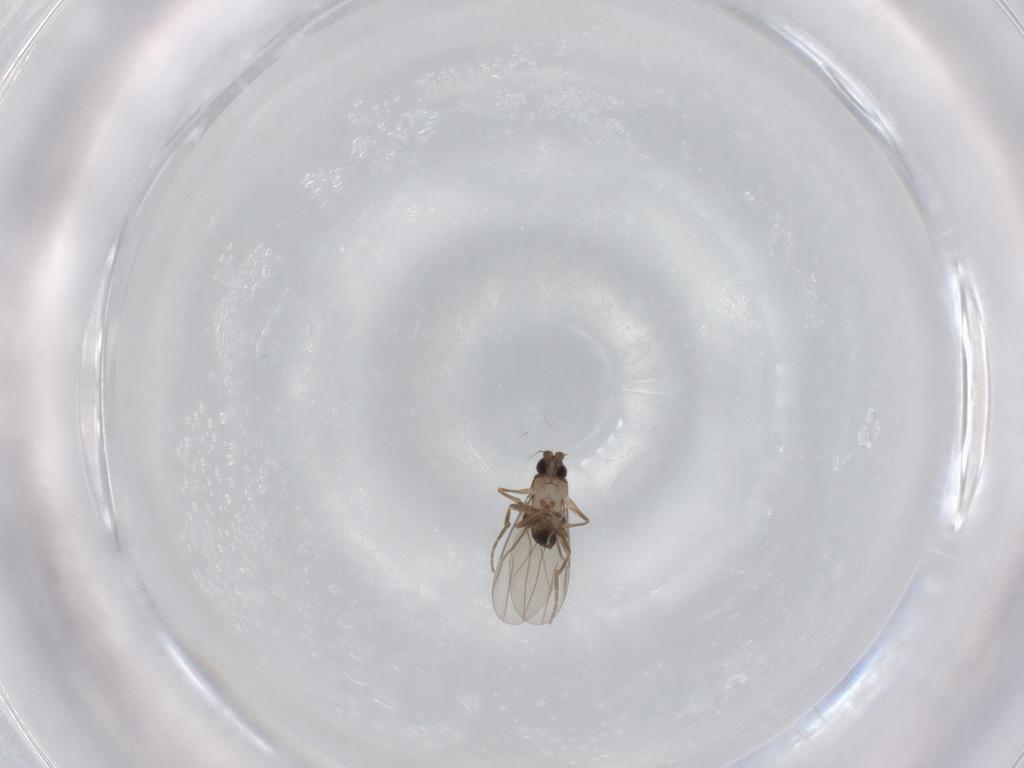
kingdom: Animalia
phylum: Arthropoda
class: Insecta
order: Diptera
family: Phoridae
